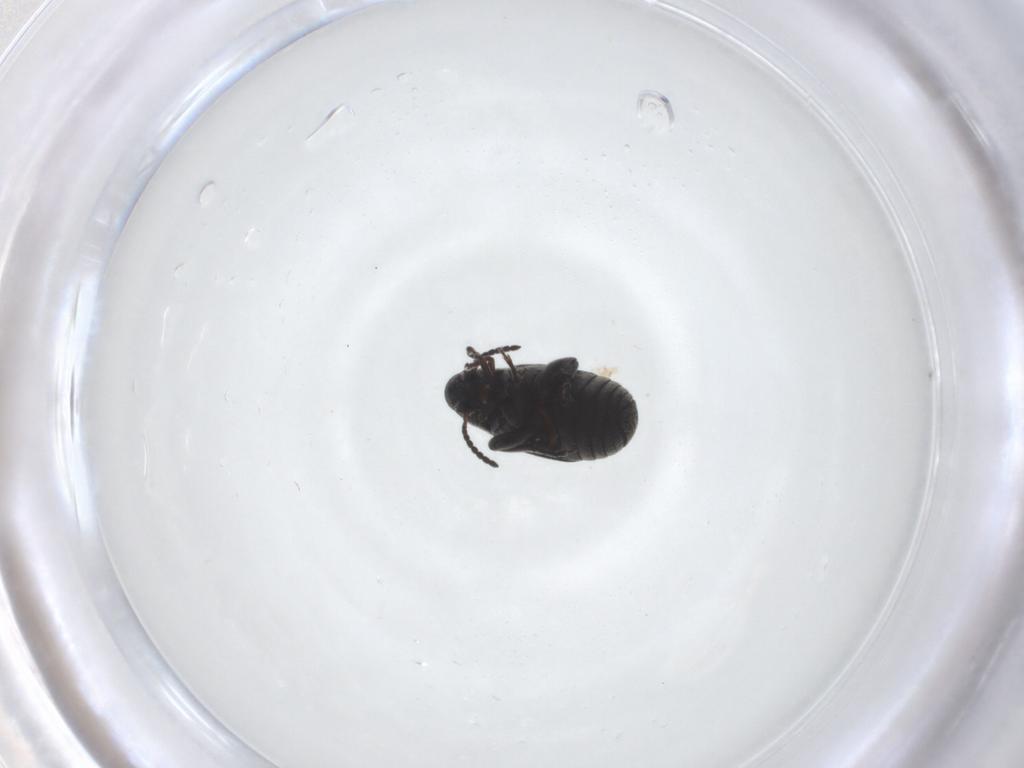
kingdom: Animalia
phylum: Arthropoda
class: Insecta
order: Coleoptera
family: Chrysomelidae
